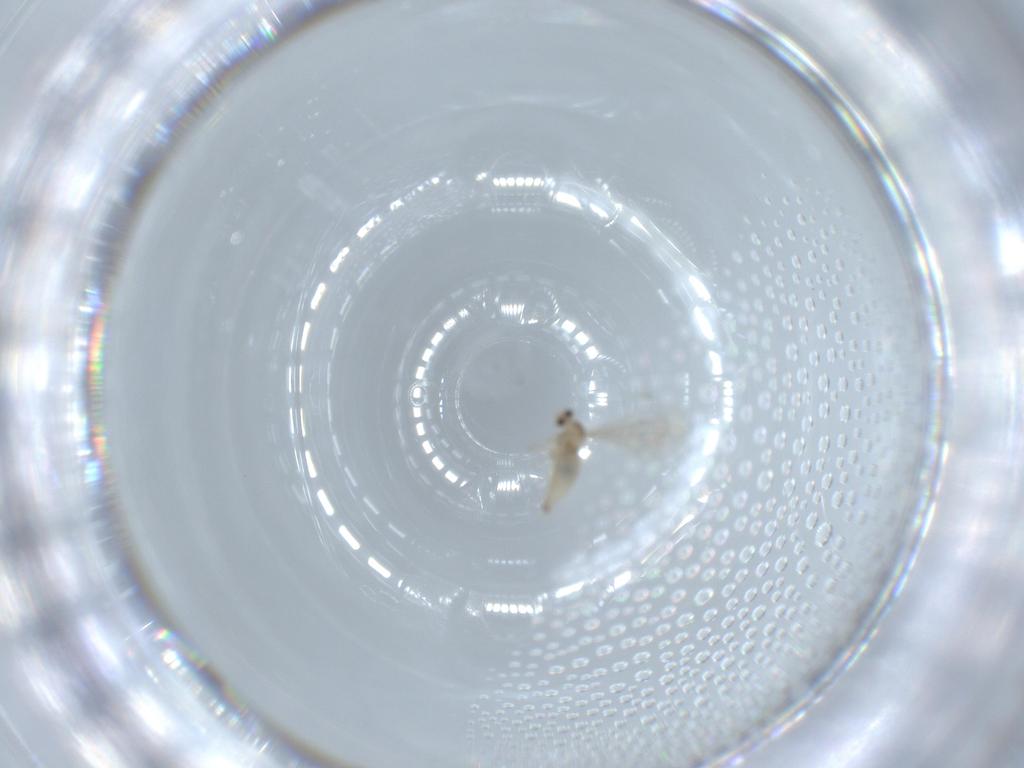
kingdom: Animalia
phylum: Arthropoda
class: Insecta
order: Diptera
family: Cecidomyiidae
